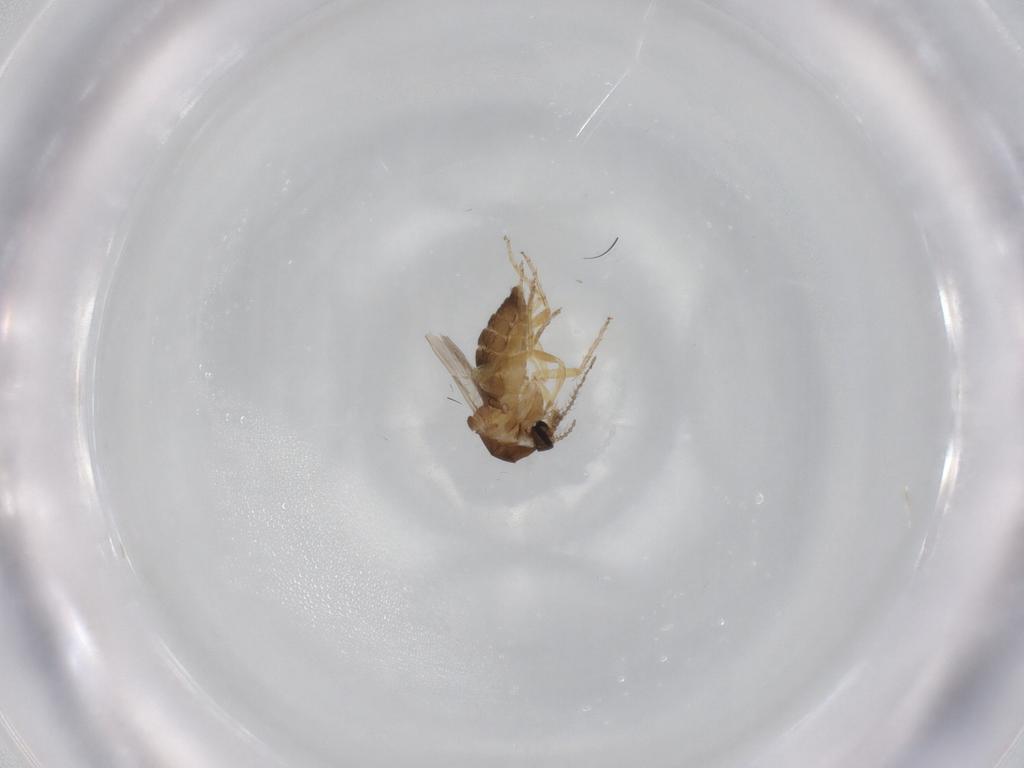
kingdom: Animalia
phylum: Arthropoda
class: Insecta
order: Diptera
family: Ceratopogonidae
